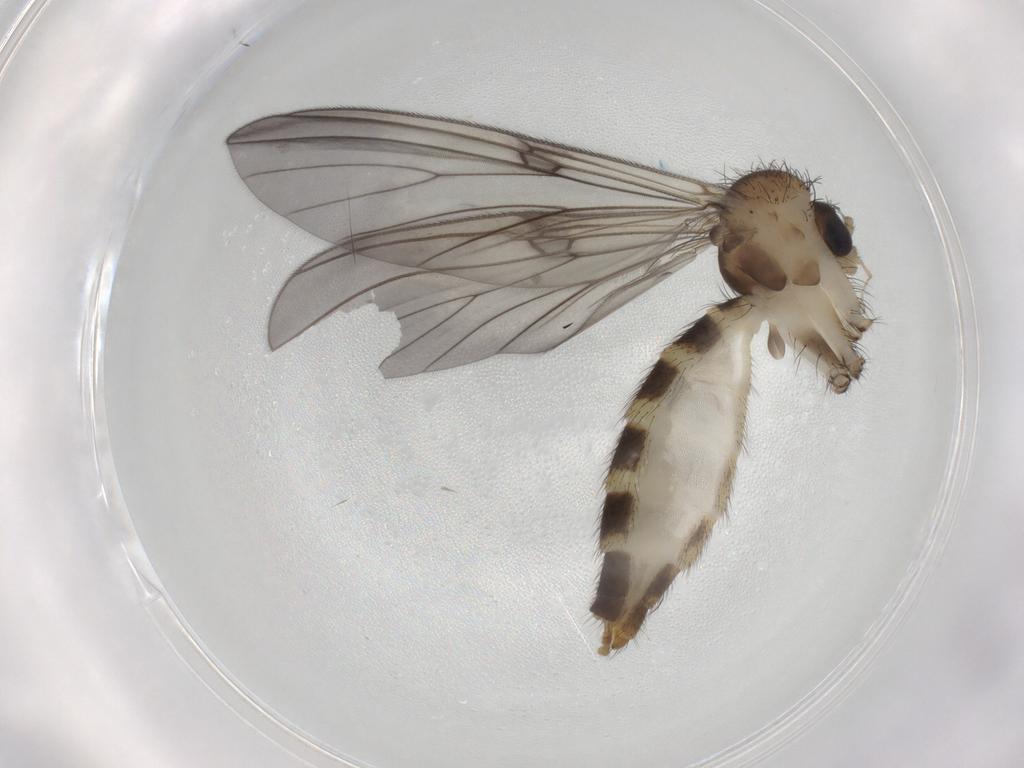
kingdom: Animalia
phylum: Arthropoda
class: Insecta
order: Diptera
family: Mycetophilidae
